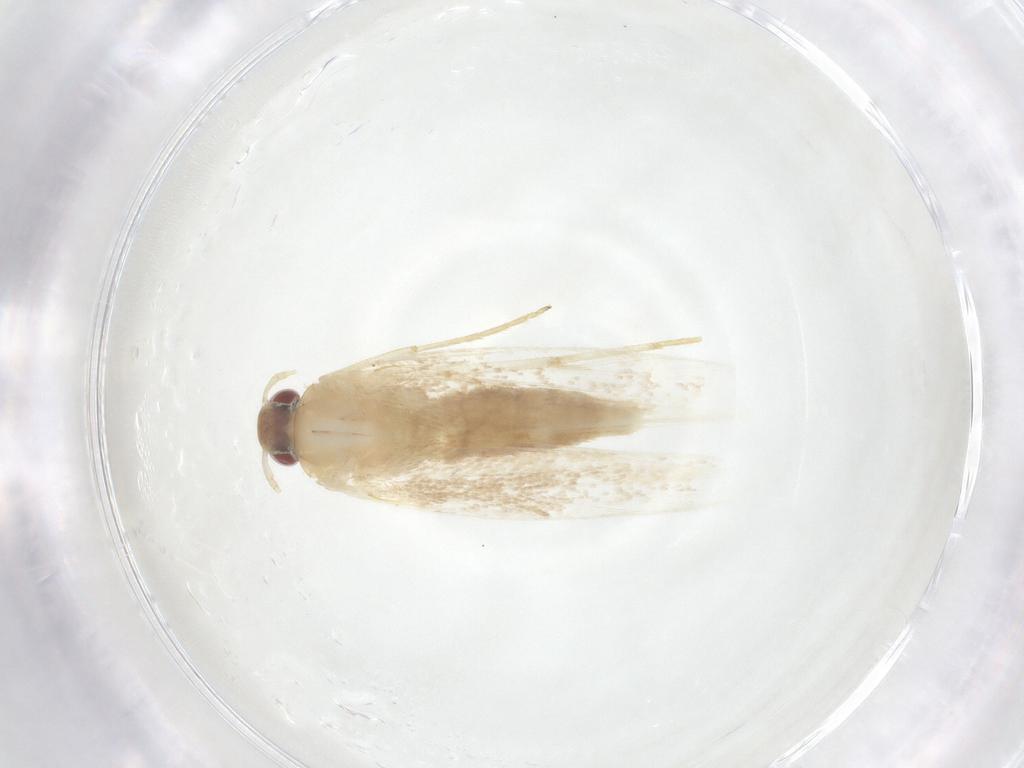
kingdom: Animalia
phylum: Arthropoda
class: Insecta
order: Lepidoptera
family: Cosmopterigidae
